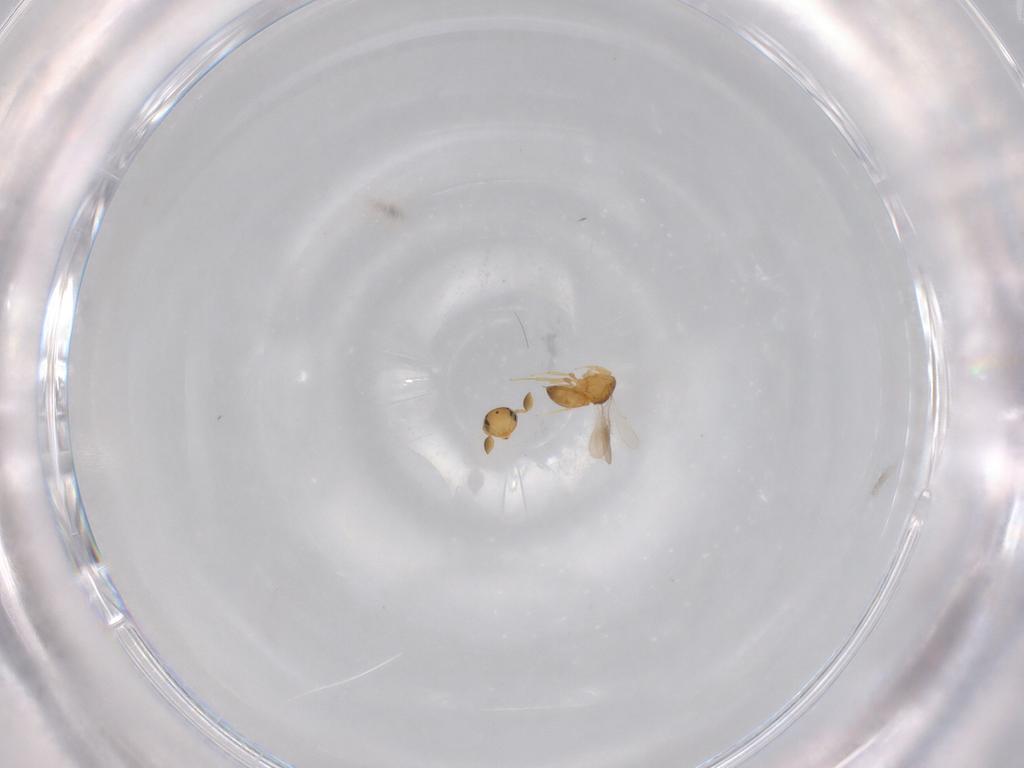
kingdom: Animalia
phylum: Arthropoda
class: Insecta
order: Hymenoptera
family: Scelionidae
